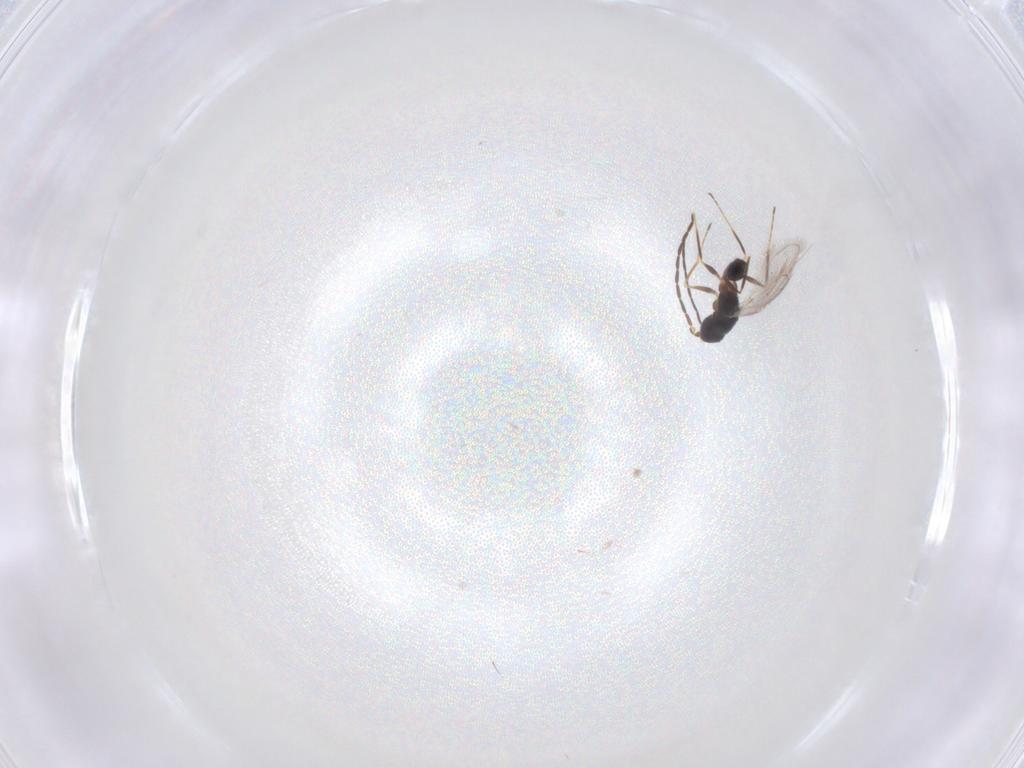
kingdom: Animalia
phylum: Arthropoda
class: Insecta
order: Hymenoptera
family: Mymaridae
